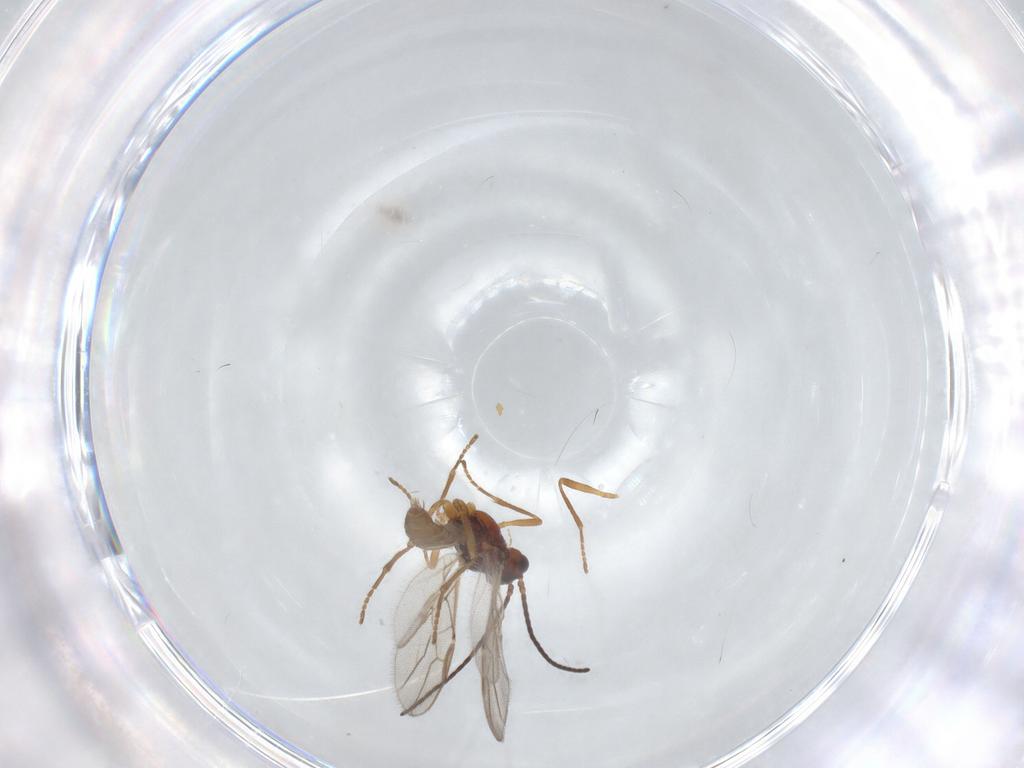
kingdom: Animalia
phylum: Arthropoda
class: Insecta
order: Hymenoptera
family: Braconidae
